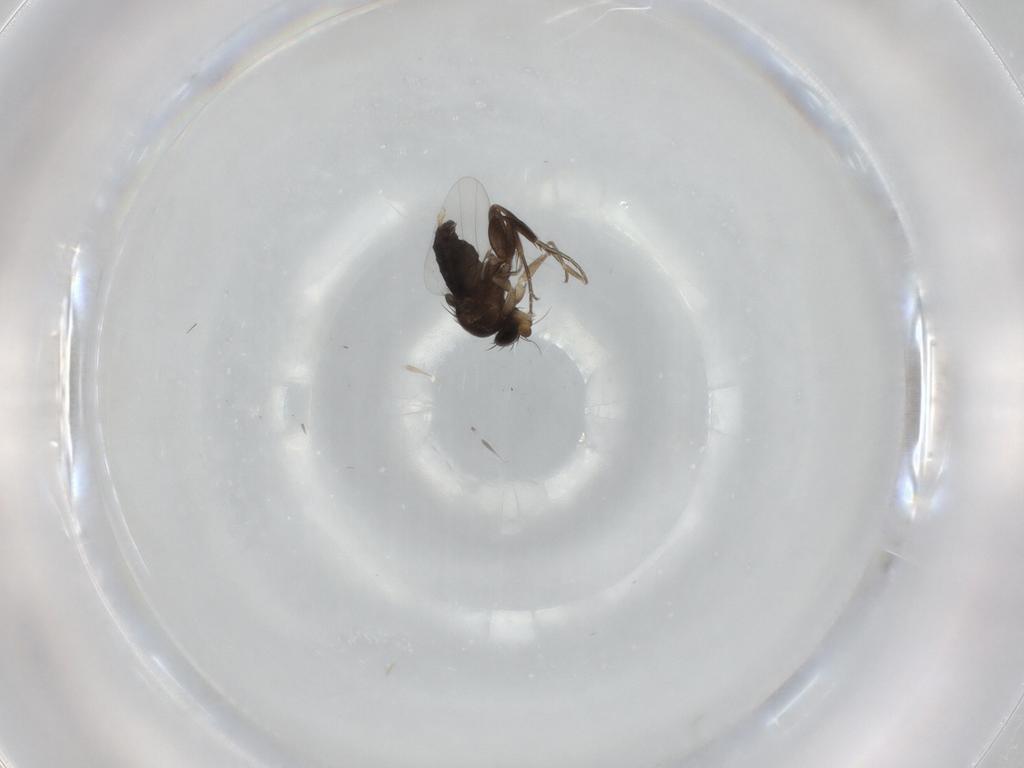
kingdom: Animalia
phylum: Arthropoda
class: Insecta
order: Diptera
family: Phoridae
